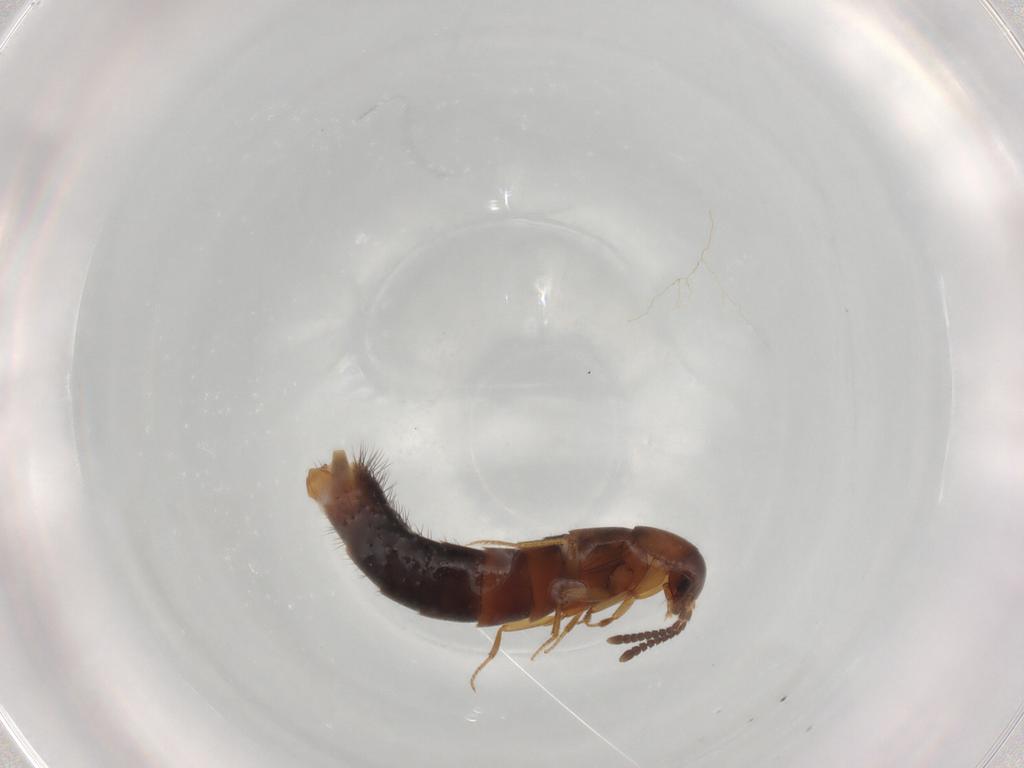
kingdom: Animalia
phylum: Arthropoda
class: Insecta
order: Coleoptera
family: Staphylinidae
